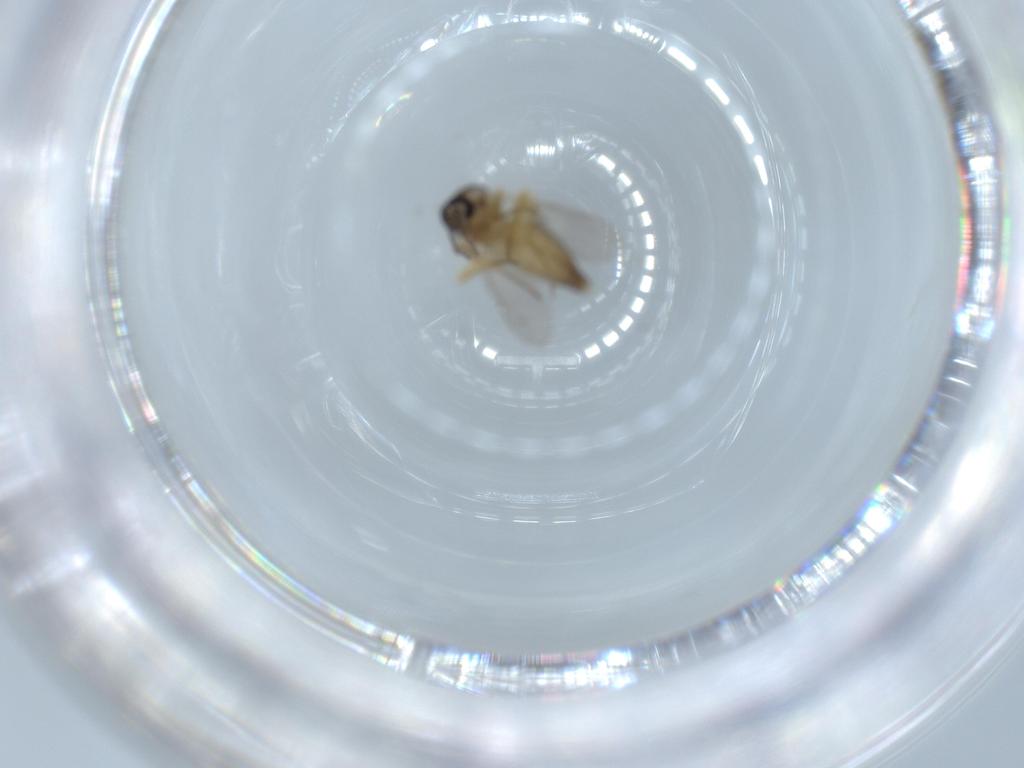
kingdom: Animalia
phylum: Arthropoda
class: Insecta
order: Diptera
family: Ceratopogonidae
